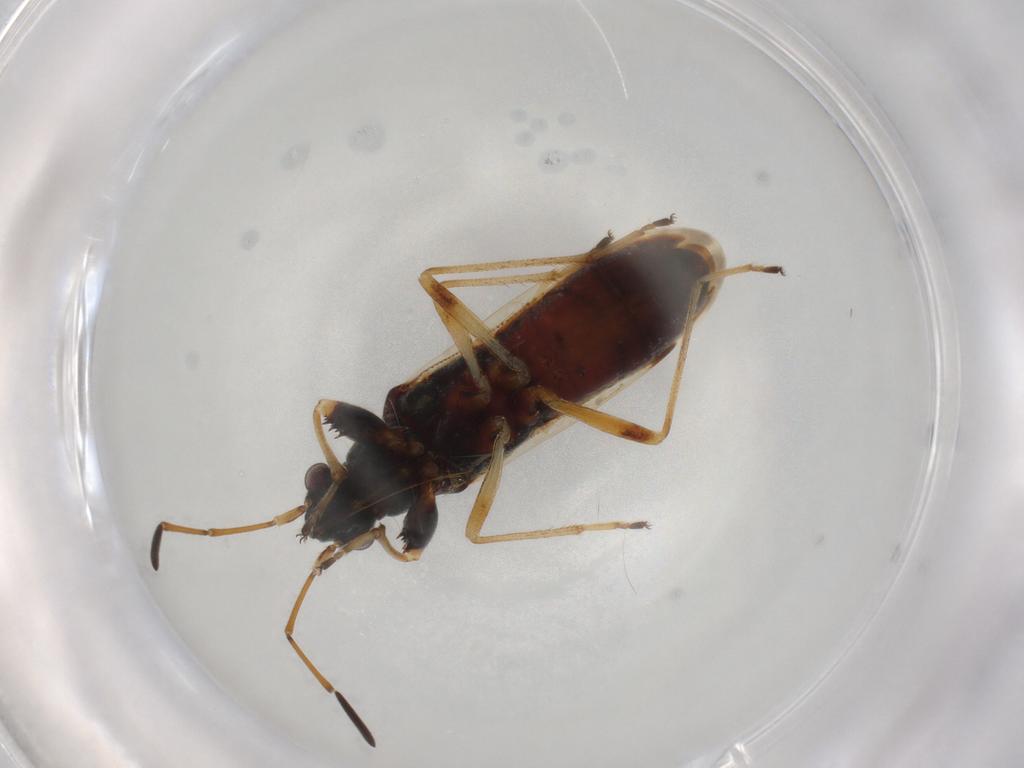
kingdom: Animalia
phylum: Arthropoda
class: Insecta
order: Hemiptera
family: Rhyparochromidae
